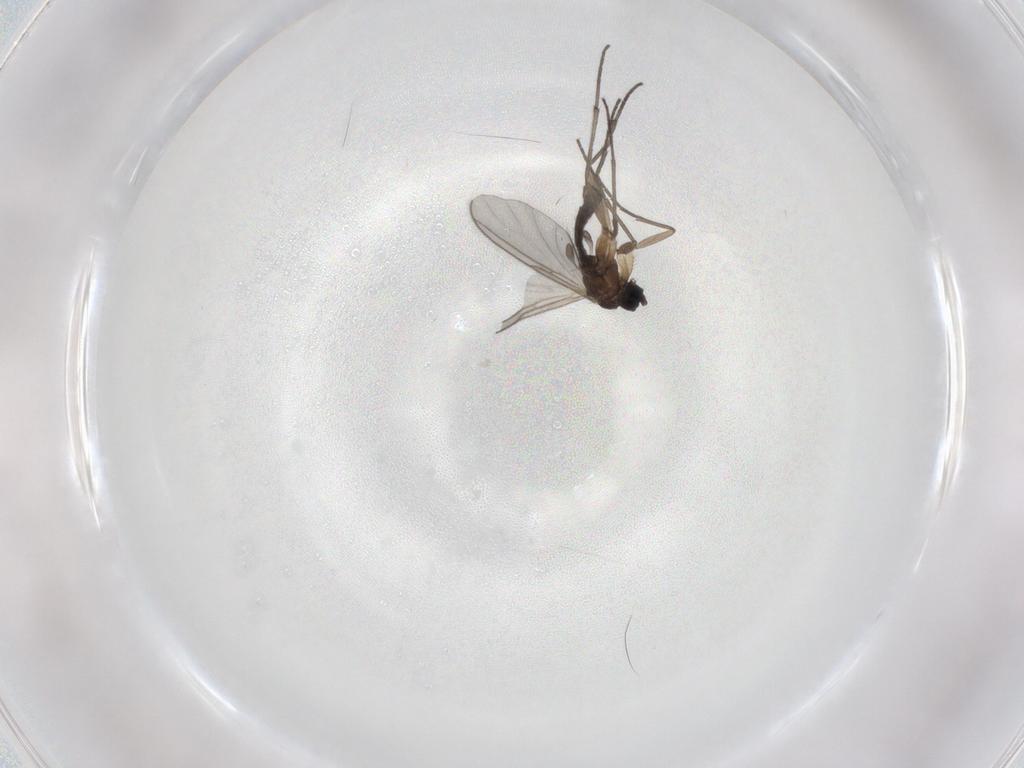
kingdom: Animalia
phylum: Arthropoda
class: Insecta
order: Diptera
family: Sciaridae
